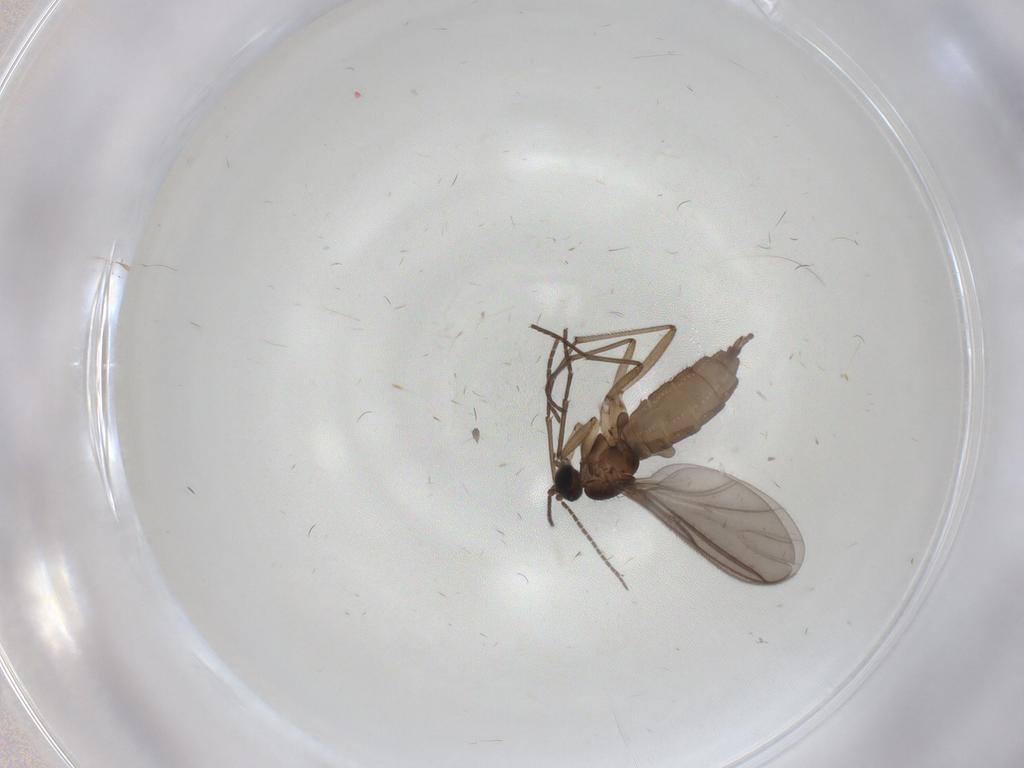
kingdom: Animalia
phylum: Arthropoda
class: Insecta
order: Diptera
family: Sciaridae
